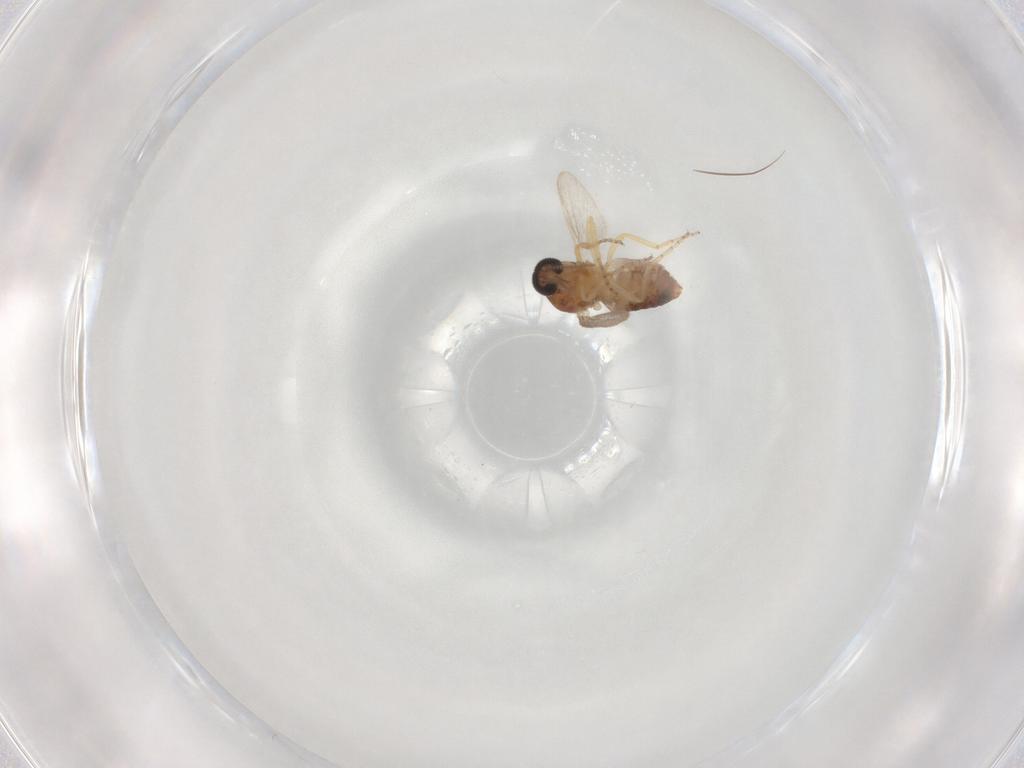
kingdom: Animalia
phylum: Arthropoda
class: Insecta
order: Diptera
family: Ceratopogonidae
